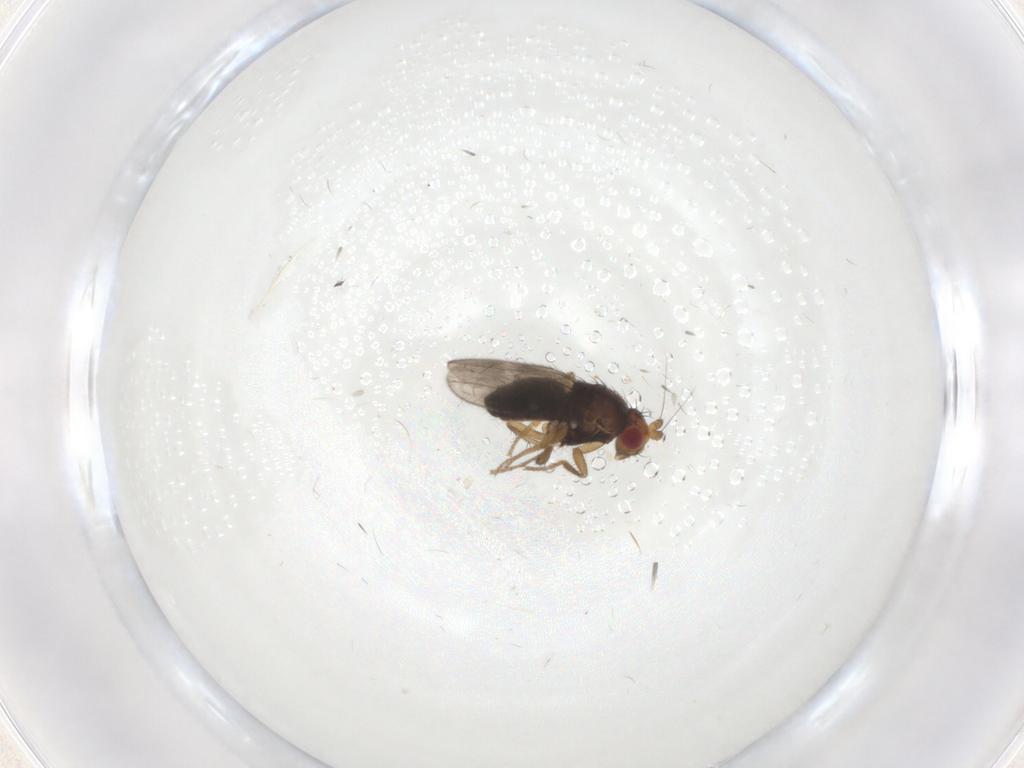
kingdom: Animalia
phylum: Arthropoda
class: Insecta
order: Diptera
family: Sphaeroceridae
